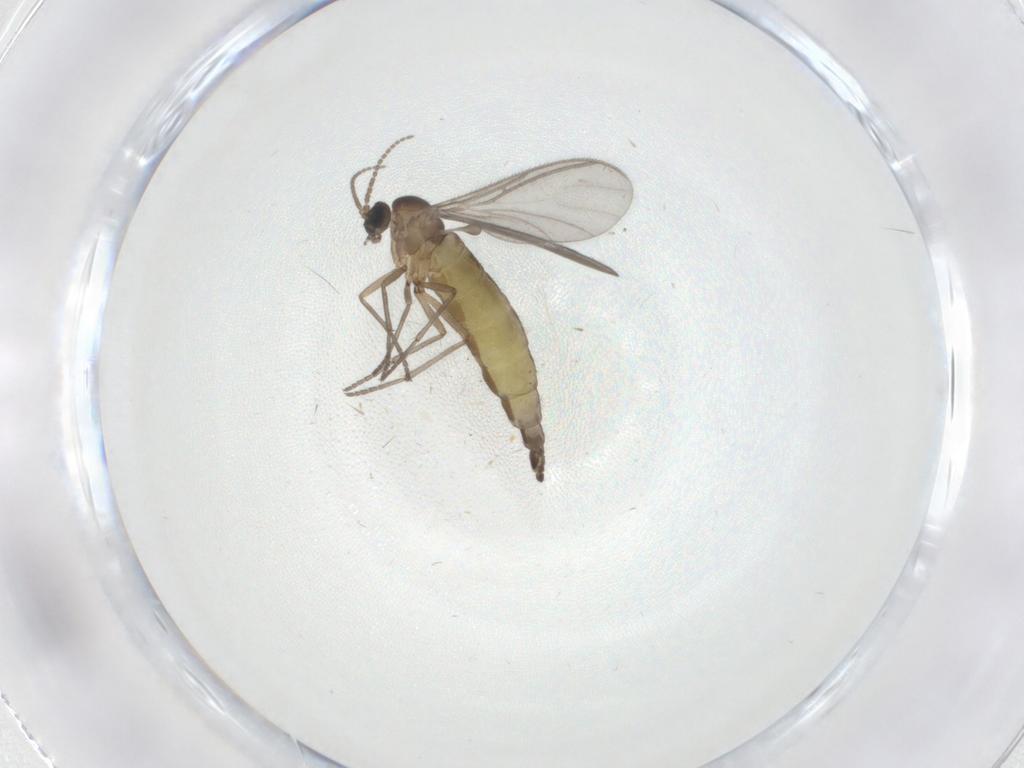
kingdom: Animalia
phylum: Arthropoda
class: Insecta
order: Diptera
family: Sciaridae
